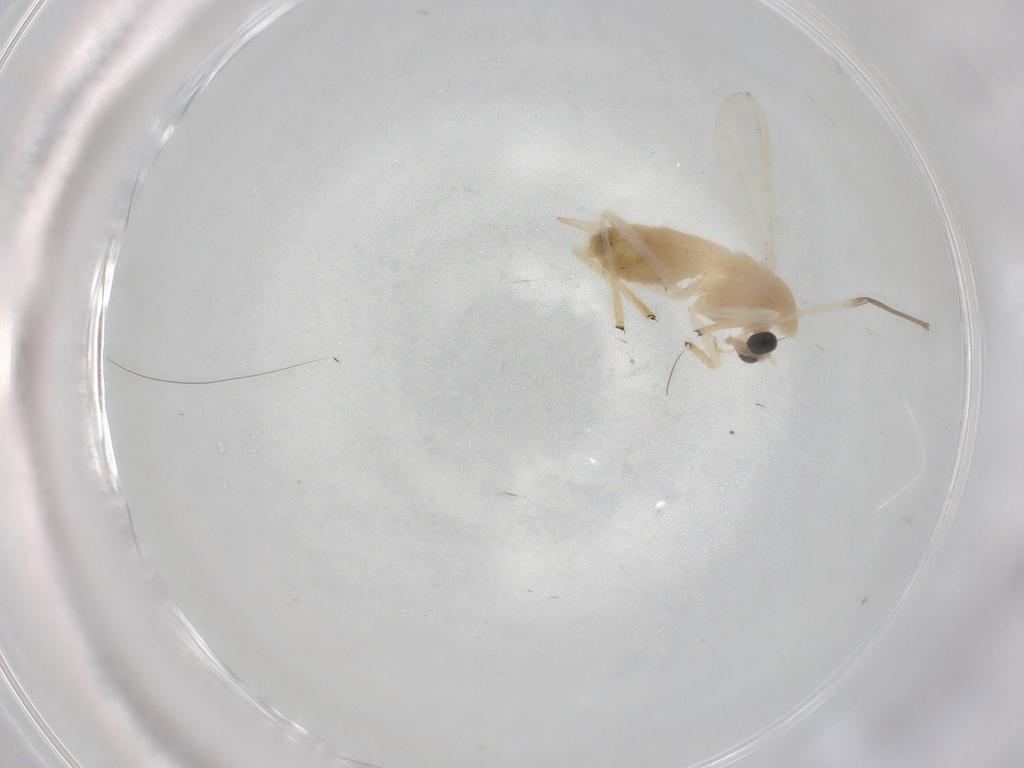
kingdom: Animalia
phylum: Arthropoda
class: Insecta
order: Diptera
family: Chironomidae
